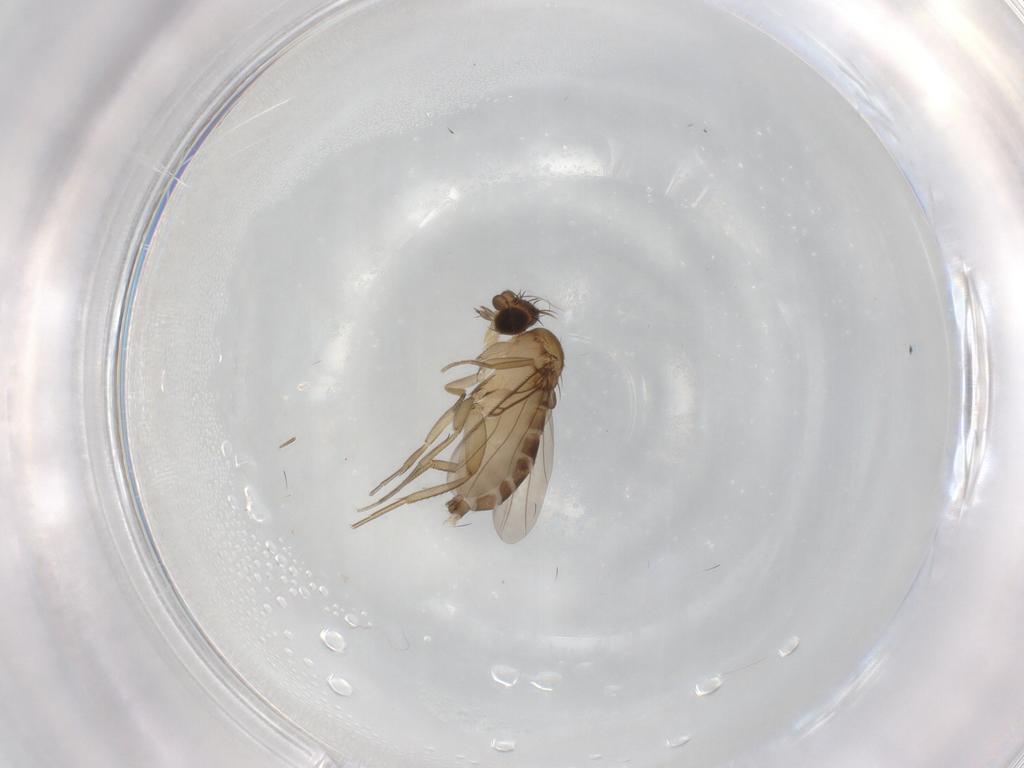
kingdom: Animalia
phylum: Arthropoda
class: Insecta
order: Diptera
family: Phoridae
